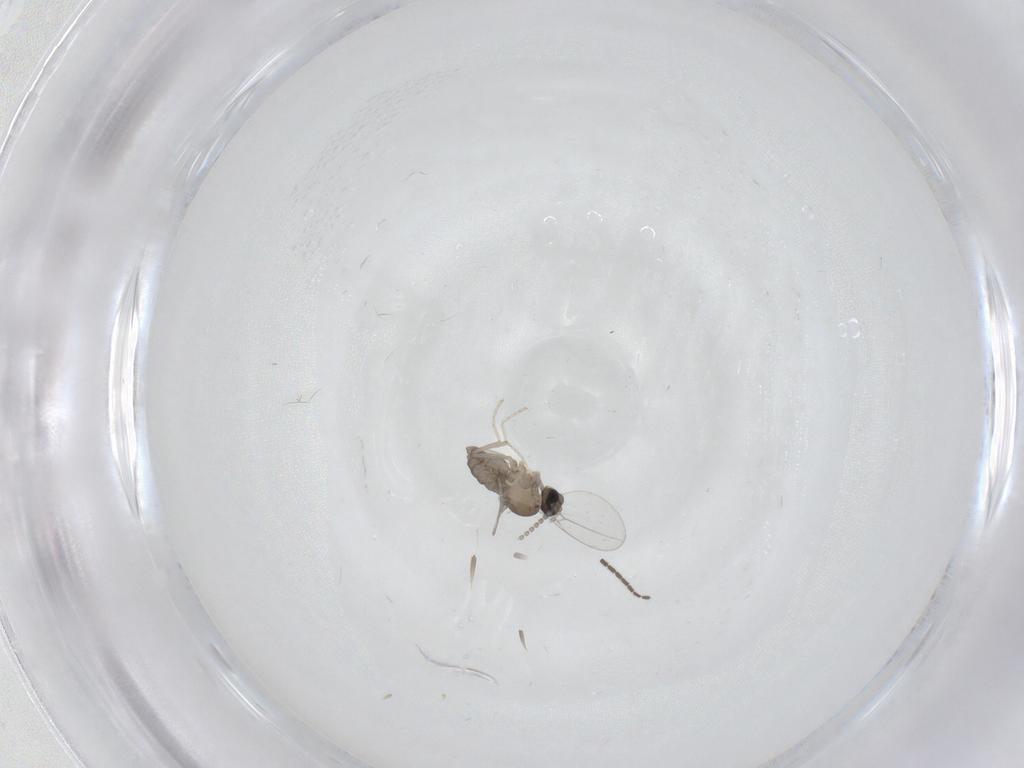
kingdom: Animalia
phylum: Arthropoda
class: Insecta
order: Diptera
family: Cecidomyiidae
